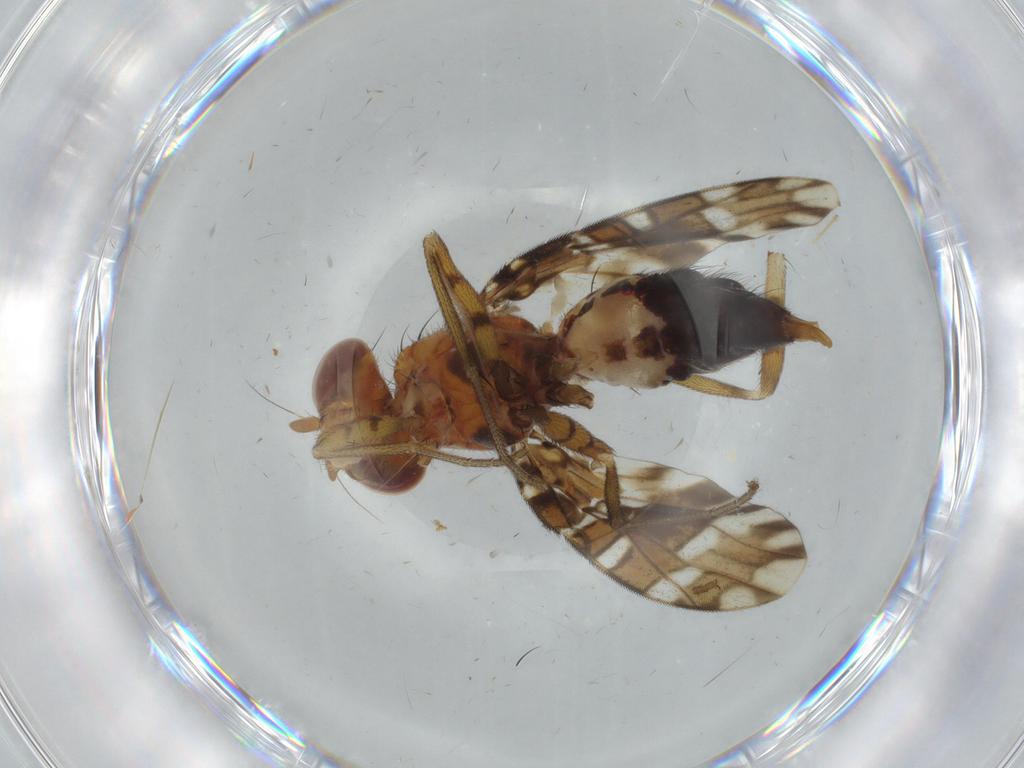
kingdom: Animalia
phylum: Arthropoda
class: Insecta
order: Diptera
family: Ulidiidae
